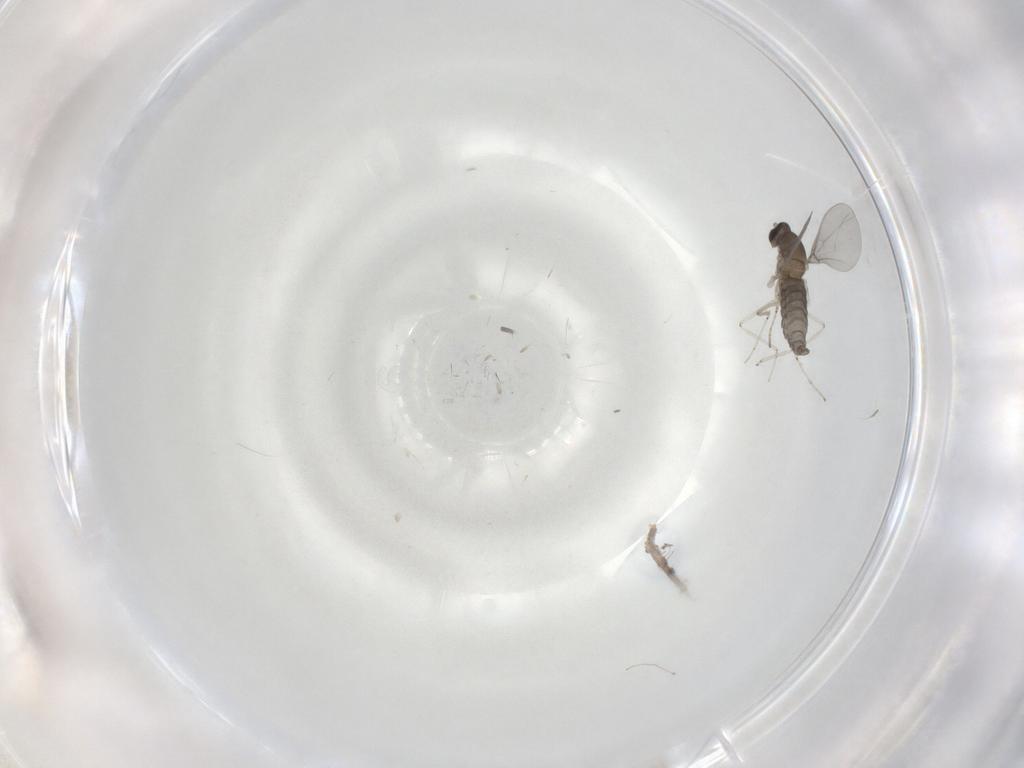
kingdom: Animalia
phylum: Arthropoda
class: Insecta
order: Diptera
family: Cecidomyiidae
